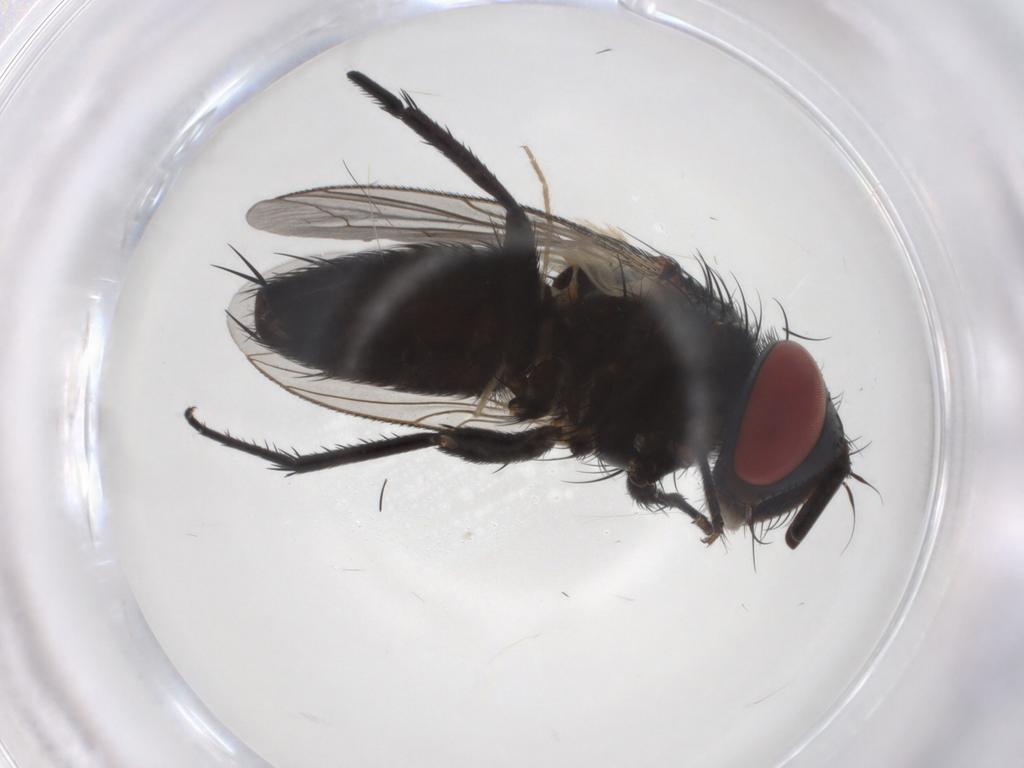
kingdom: Animalia
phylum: Arthropoda
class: Insecta
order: Diptera
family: Sarcophagidae
